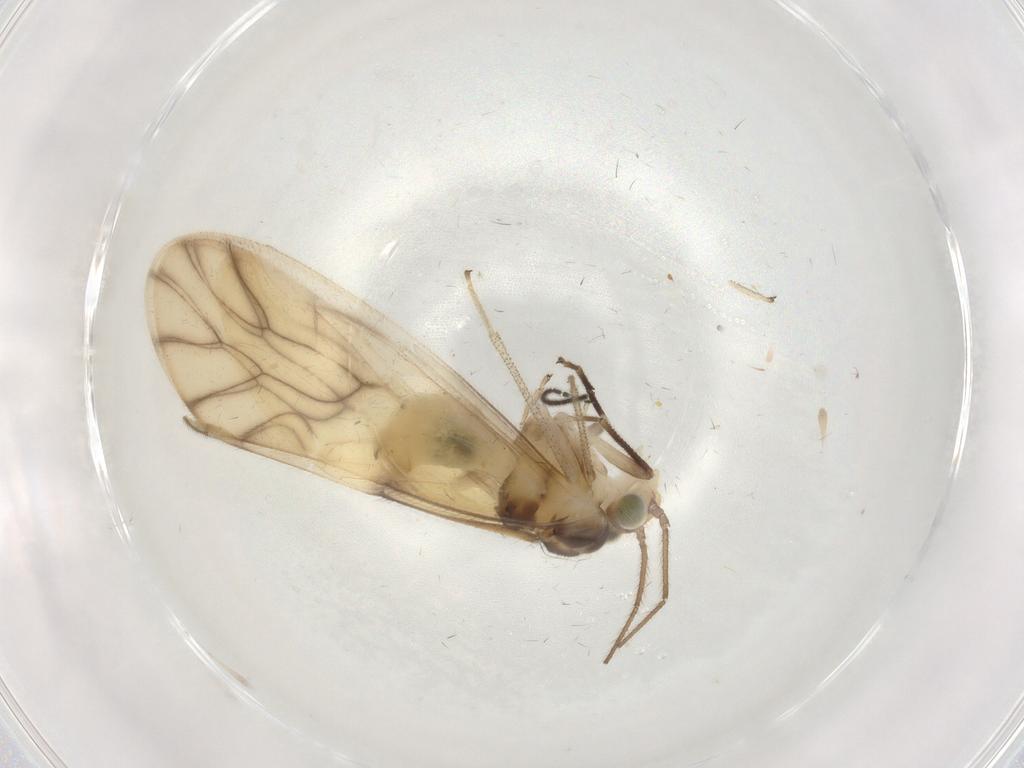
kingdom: Animalia
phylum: Arthropoda
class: Insecta
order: Psocodea
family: Caeciliusidae
